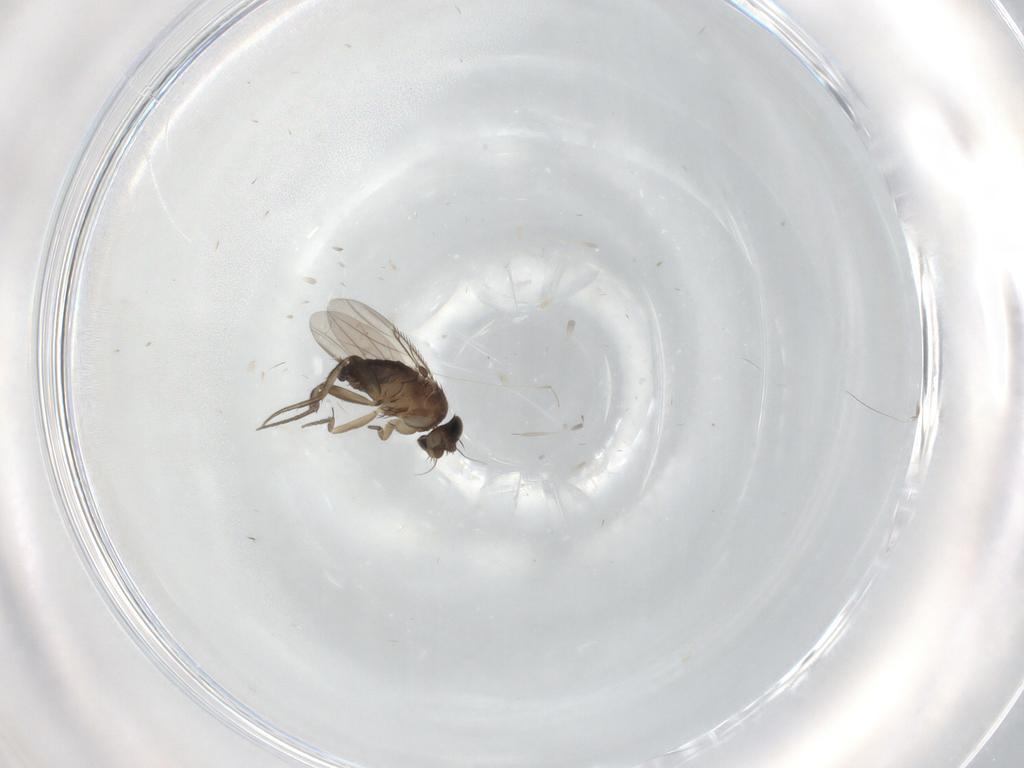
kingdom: Animalia
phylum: Arthropoda
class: Insecta
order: Diptera
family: Phoridae
